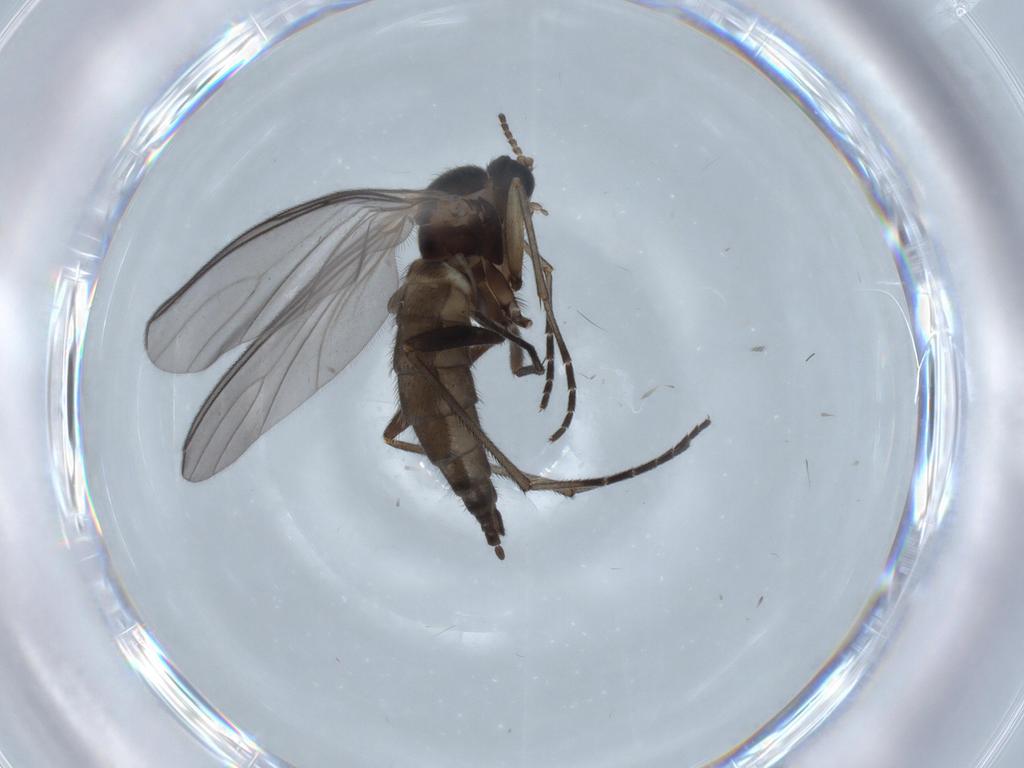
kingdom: Animalia
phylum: Arthropoda
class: Insecta
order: Diptera
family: Sciaridae
